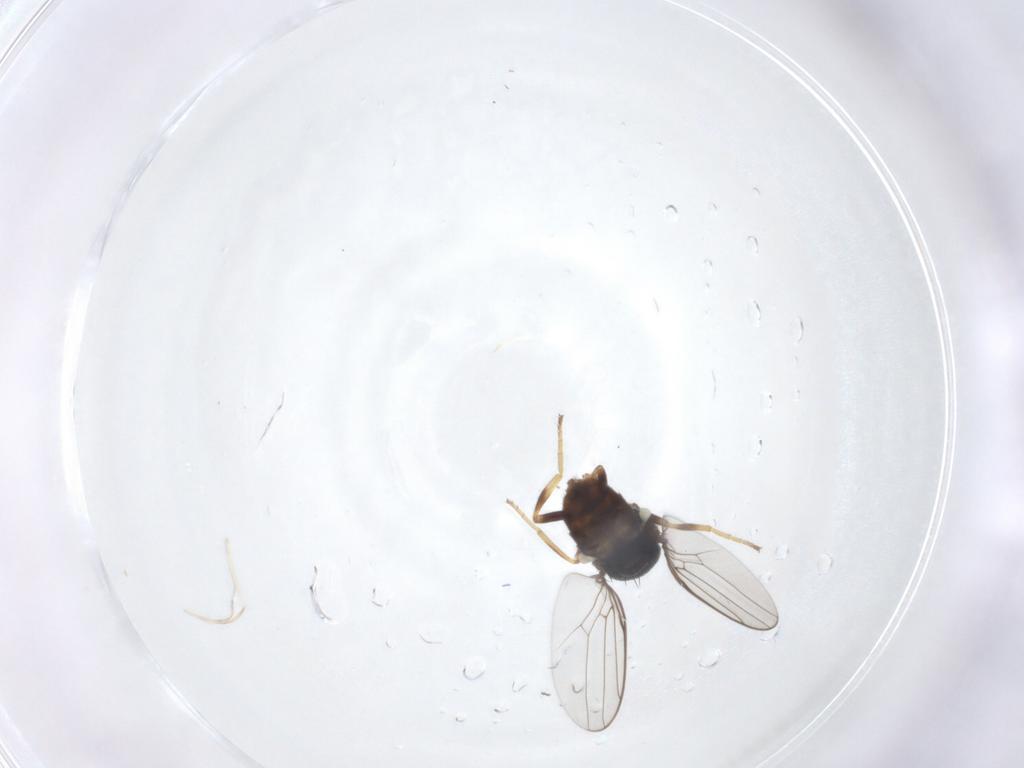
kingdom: Animalia
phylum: Arthropoda
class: Insecta
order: Diptera
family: Chloropidae
